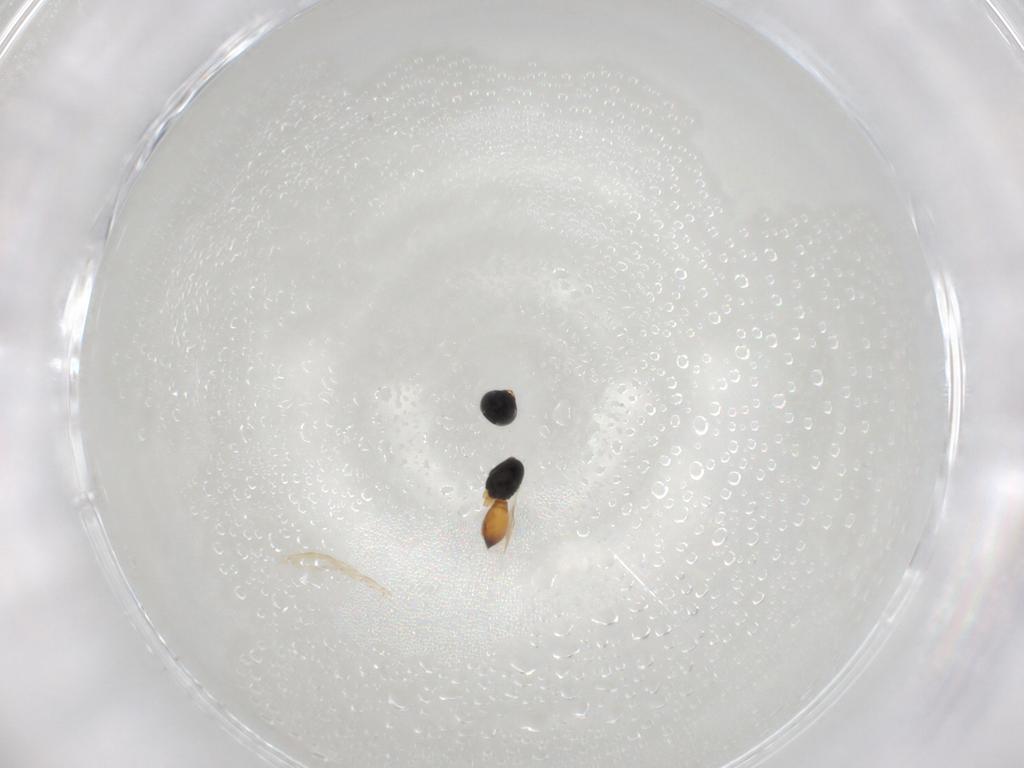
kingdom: Animalia
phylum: Arthropoda
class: Insecta
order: Hymenoptera
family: Scelionidae
